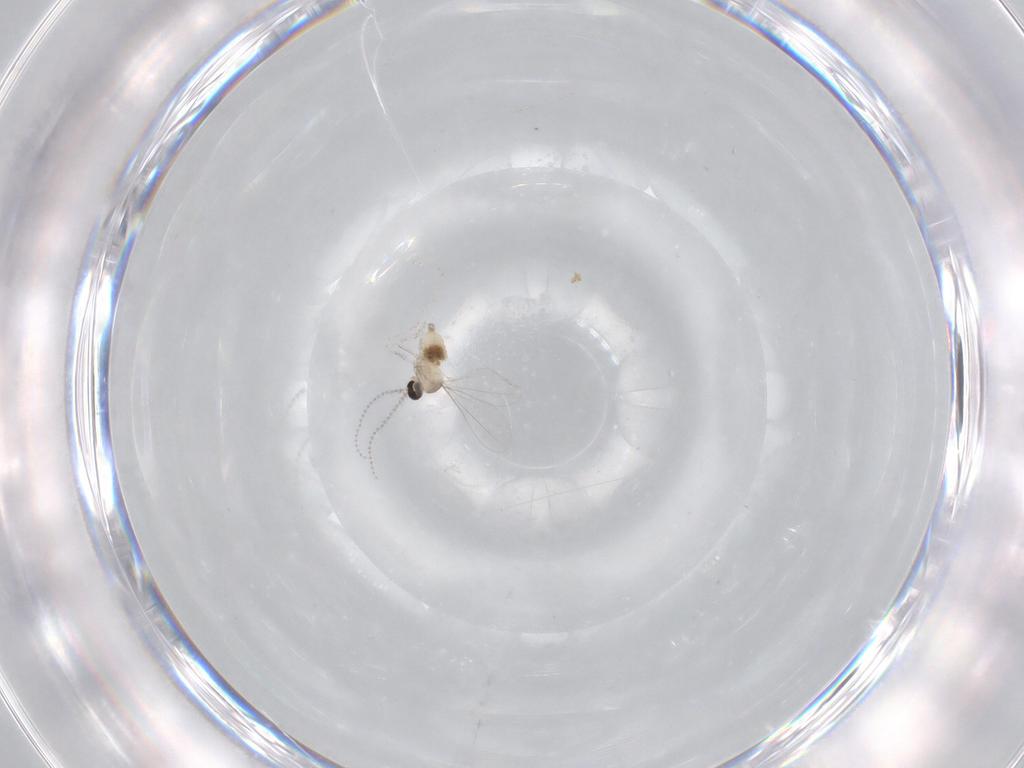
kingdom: Animalia
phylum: Arthropoda
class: Insecta
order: Diptera
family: Cecidomyiidae
